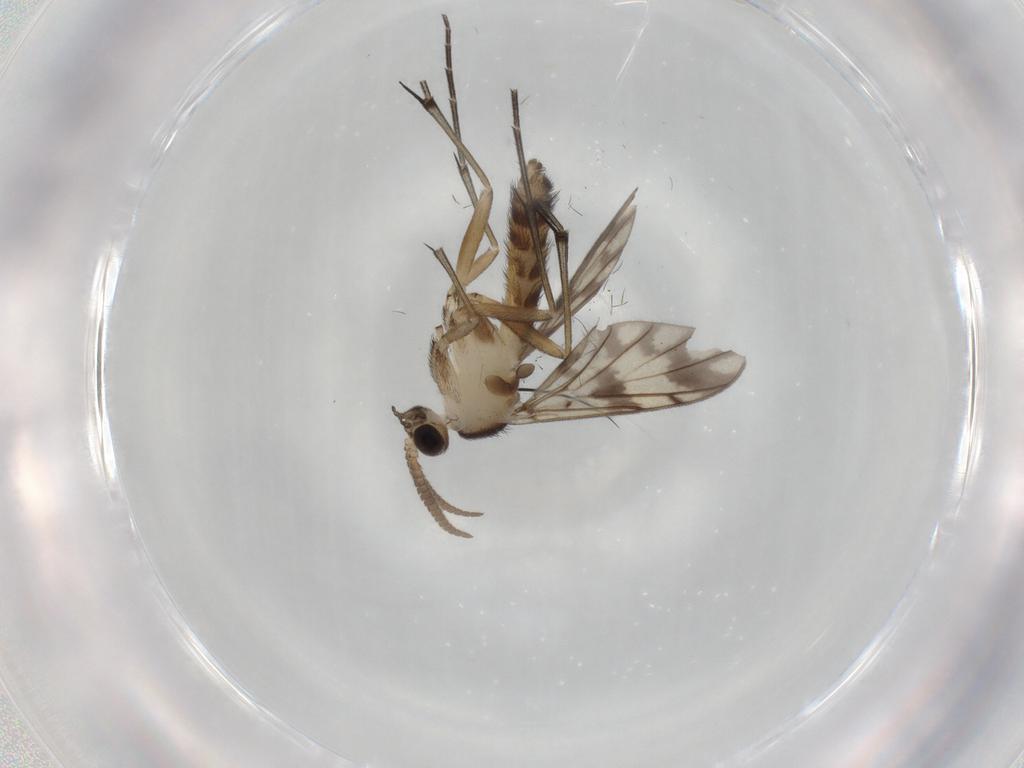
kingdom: Animalia
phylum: Arthropoda
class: Insecta
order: Diptera
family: Keroplatidae
